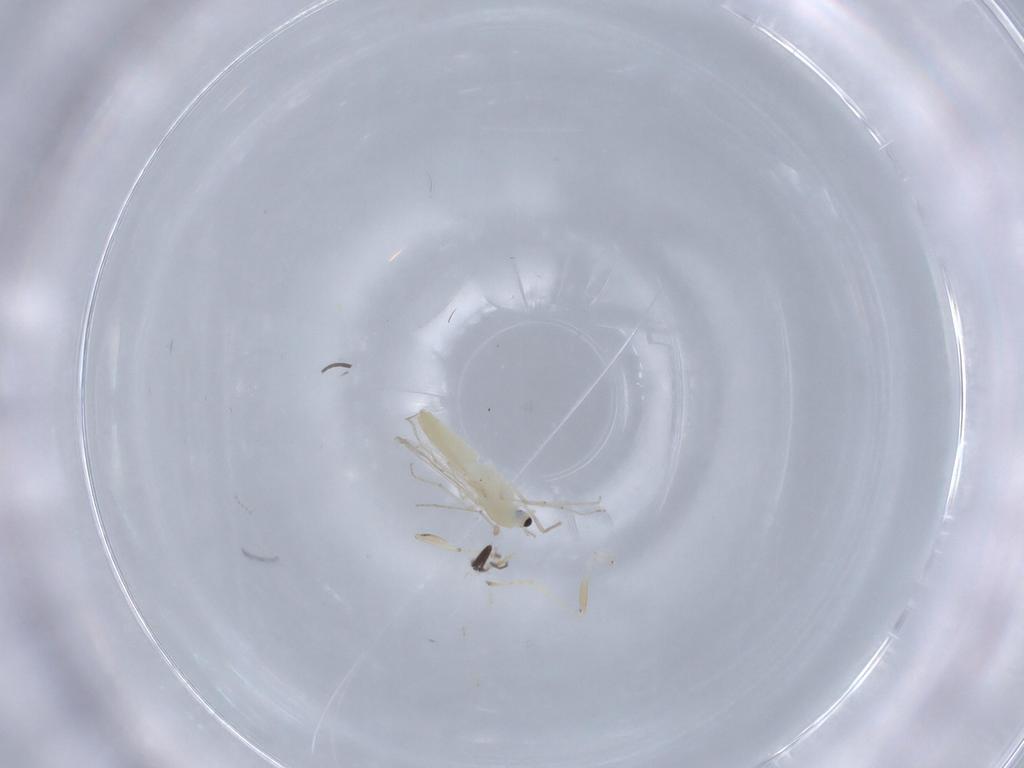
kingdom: Animalia
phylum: Arthropoda
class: Insecta
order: Diptera
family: Chironomidae
